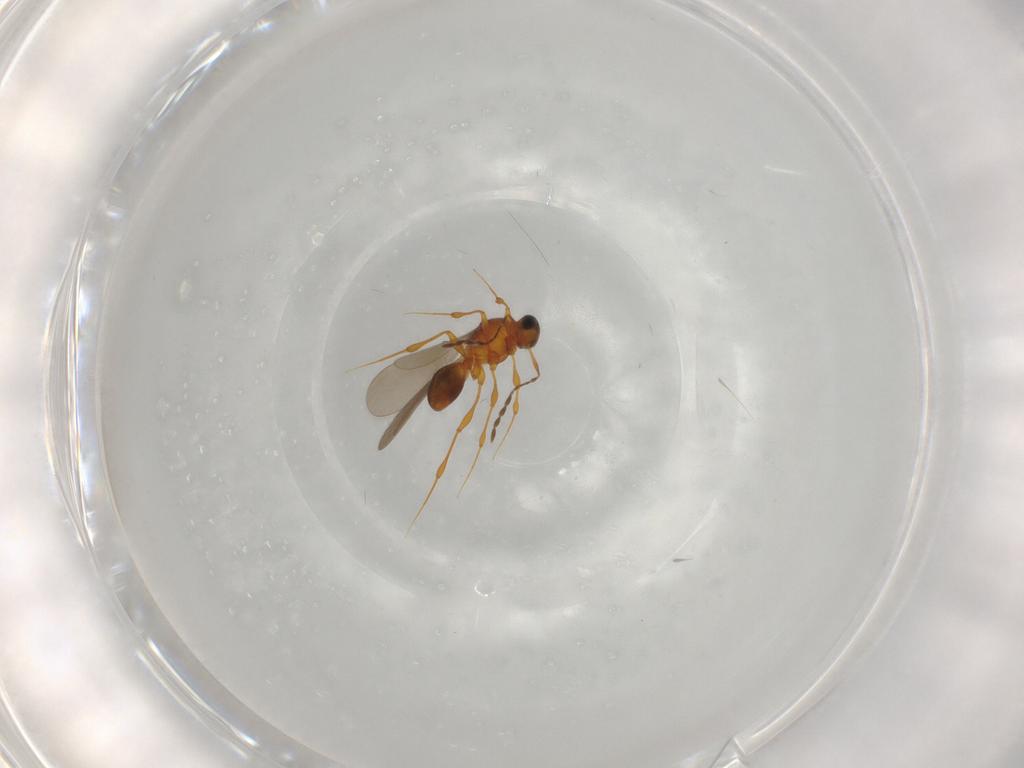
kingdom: Animalia
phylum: Arthropoda
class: Insecta
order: Hymenoptera
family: Platygastridae
